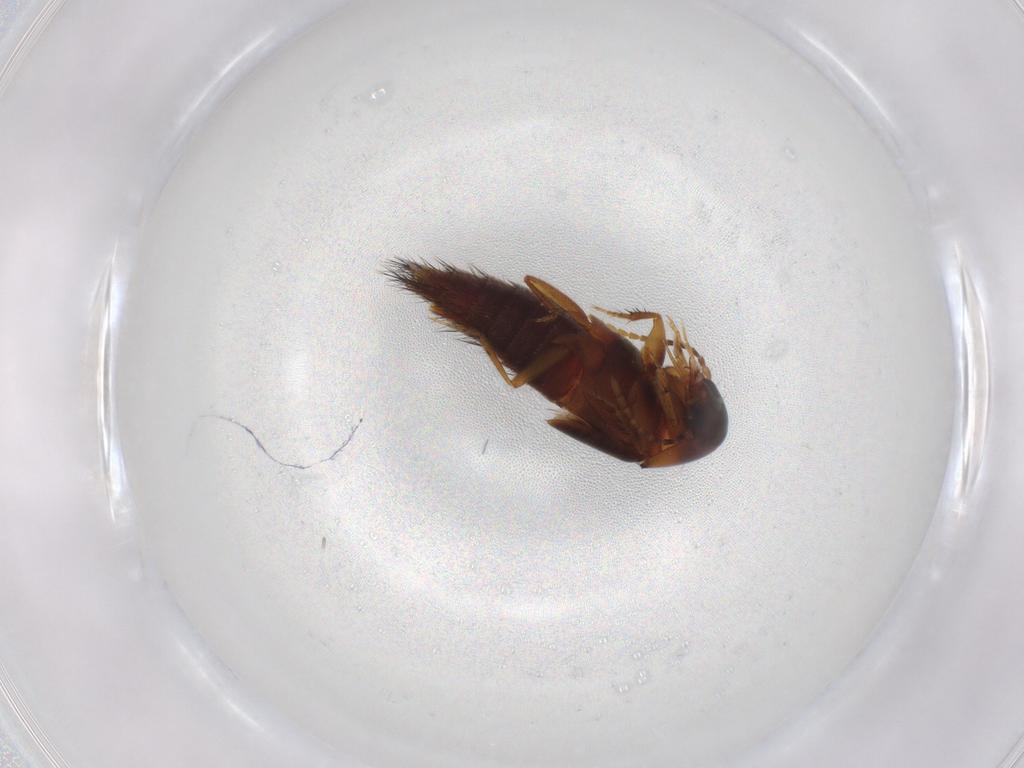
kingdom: Animalia
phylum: Arthropoda
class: Insecta
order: Coleoptera
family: Staphylinidae
